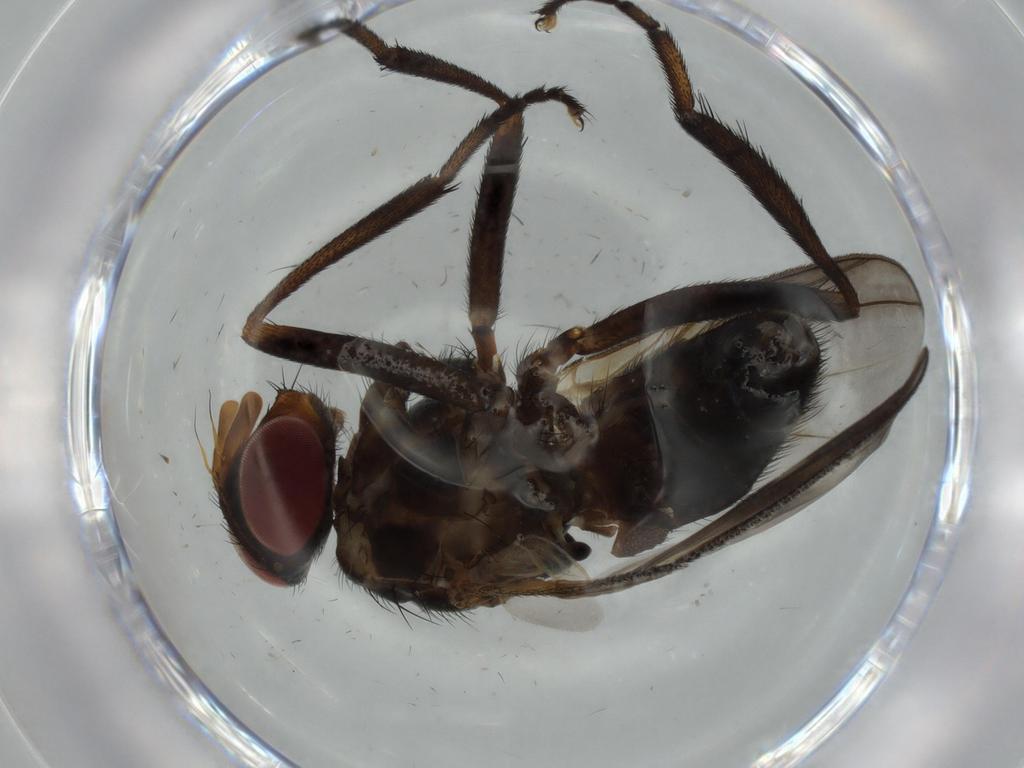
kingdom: Animalia
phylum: Arthropoda
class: Insecta
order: Diptera
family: Calliphoridae
